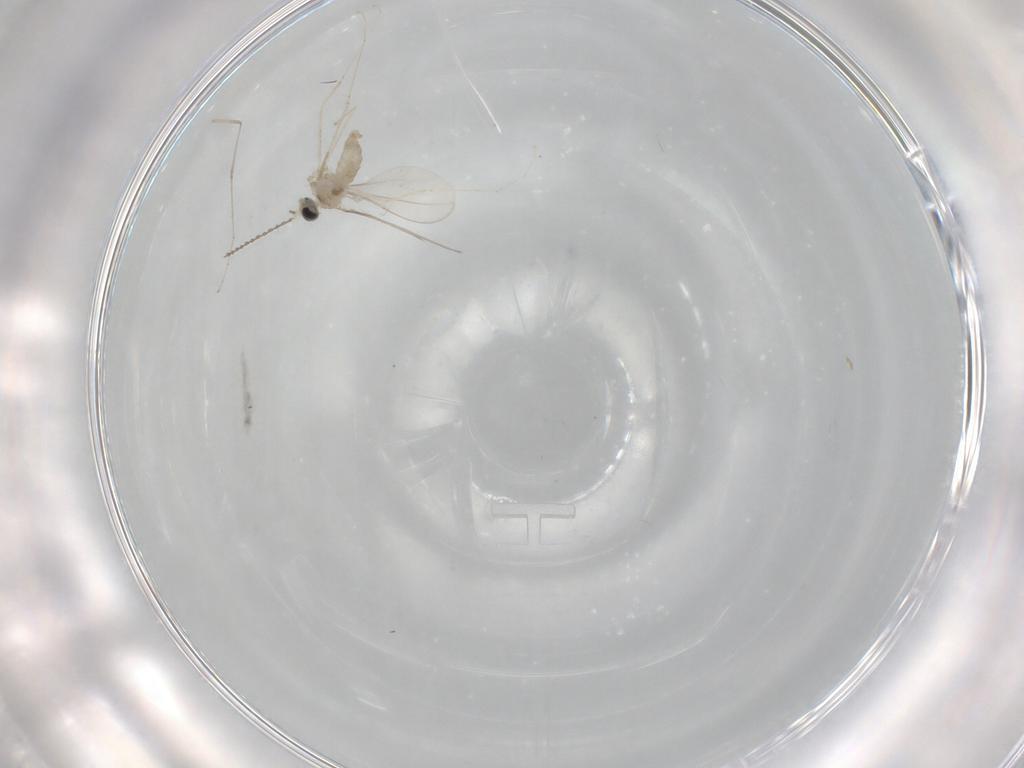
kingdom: Animalia
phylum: Arthropoda
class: Insecta
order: Diptera
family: Cecidomyiidae
